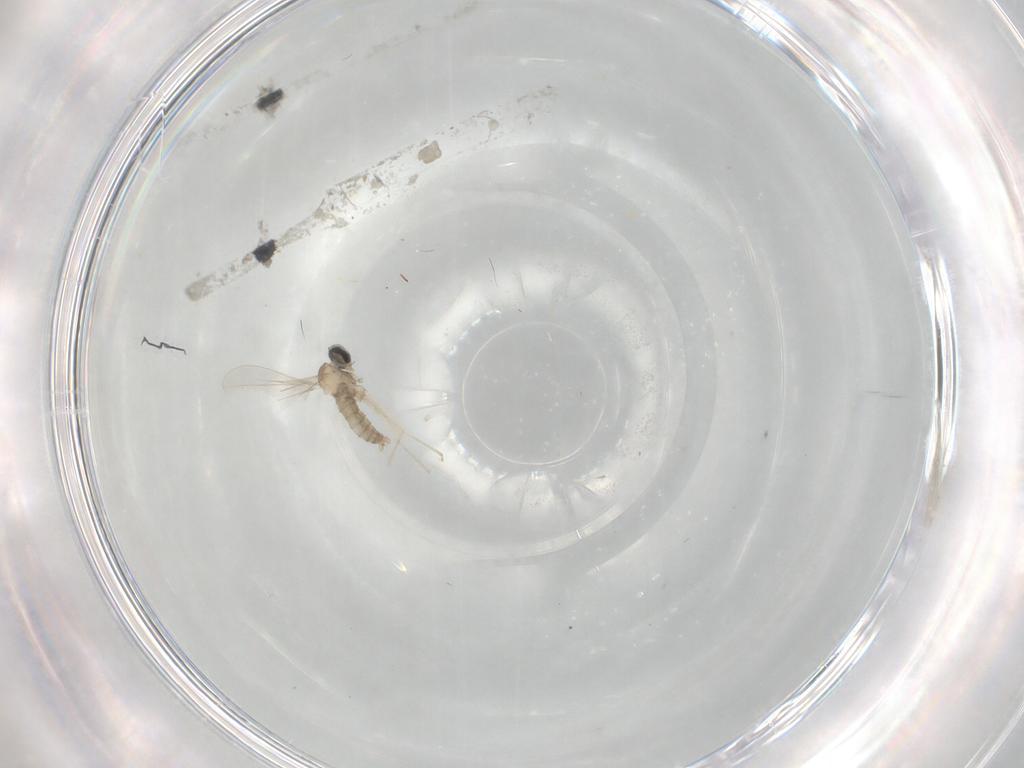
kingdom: Animalia
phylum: Arthropoda
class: Insecta
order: Diptera
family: Cecidomyiidae
